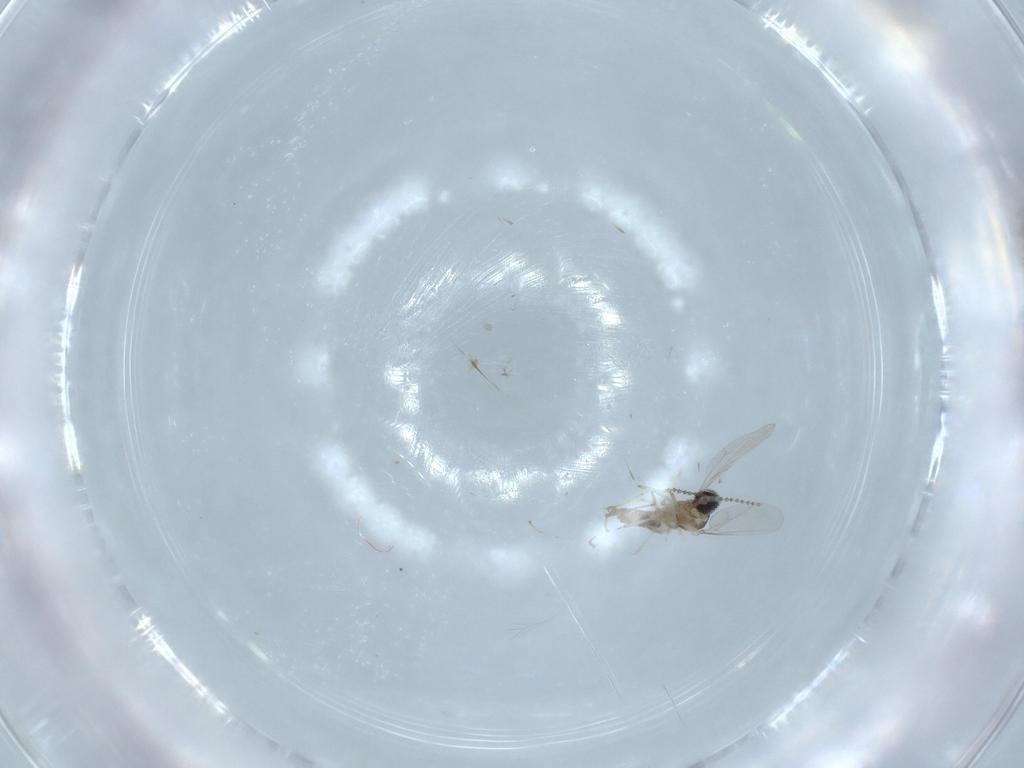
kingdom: Animalia
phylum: Arthropoda
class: Insecta
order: Diptera
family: Cecidomyiidae
